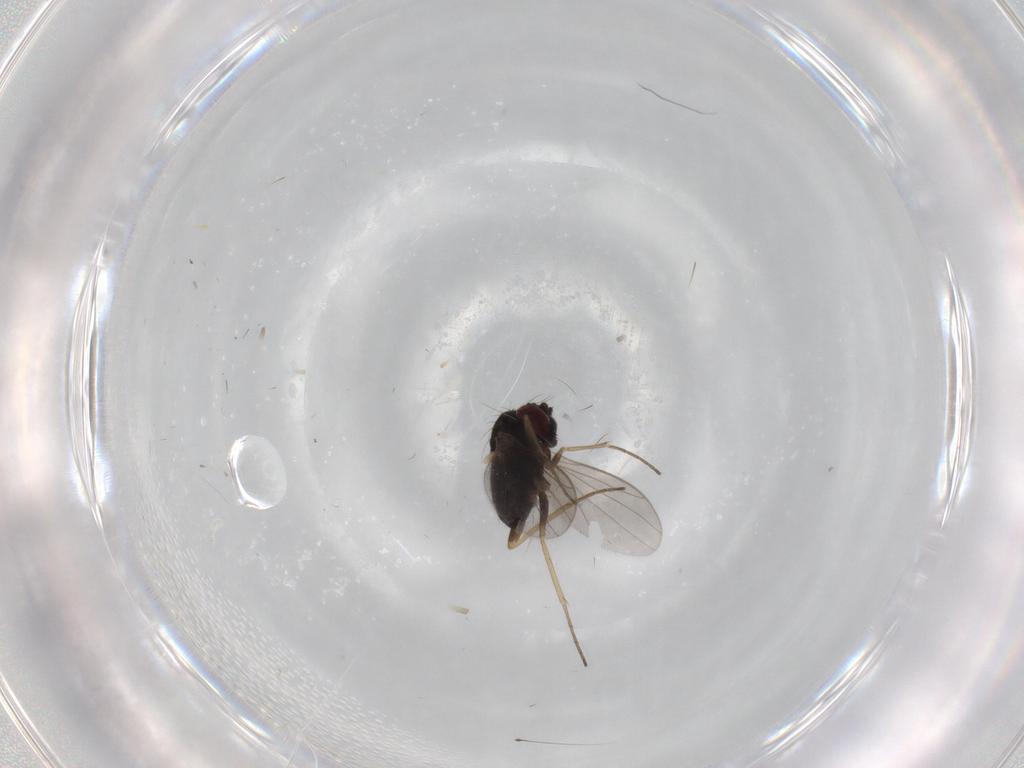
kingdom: Animalia
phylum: Arthropoda
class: Insecta
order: Diptera
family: Dolichopodidae
